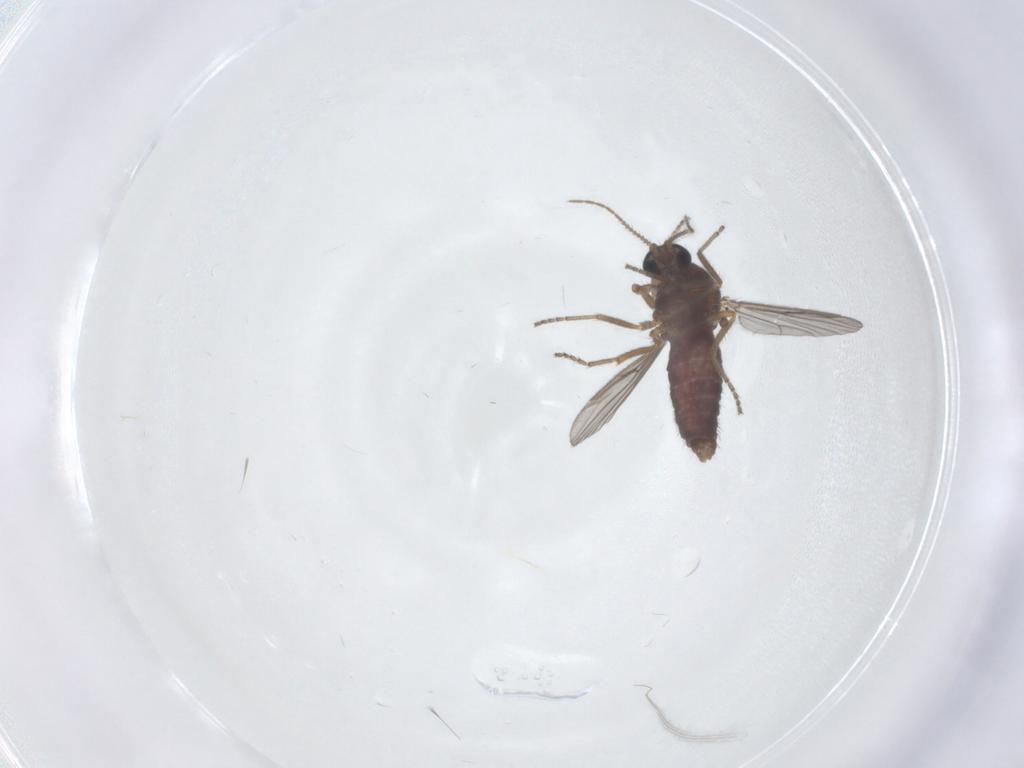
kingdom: Animalia
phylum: Arthropoda
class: Insecta
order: Diptera
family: Ceratopogonidae
